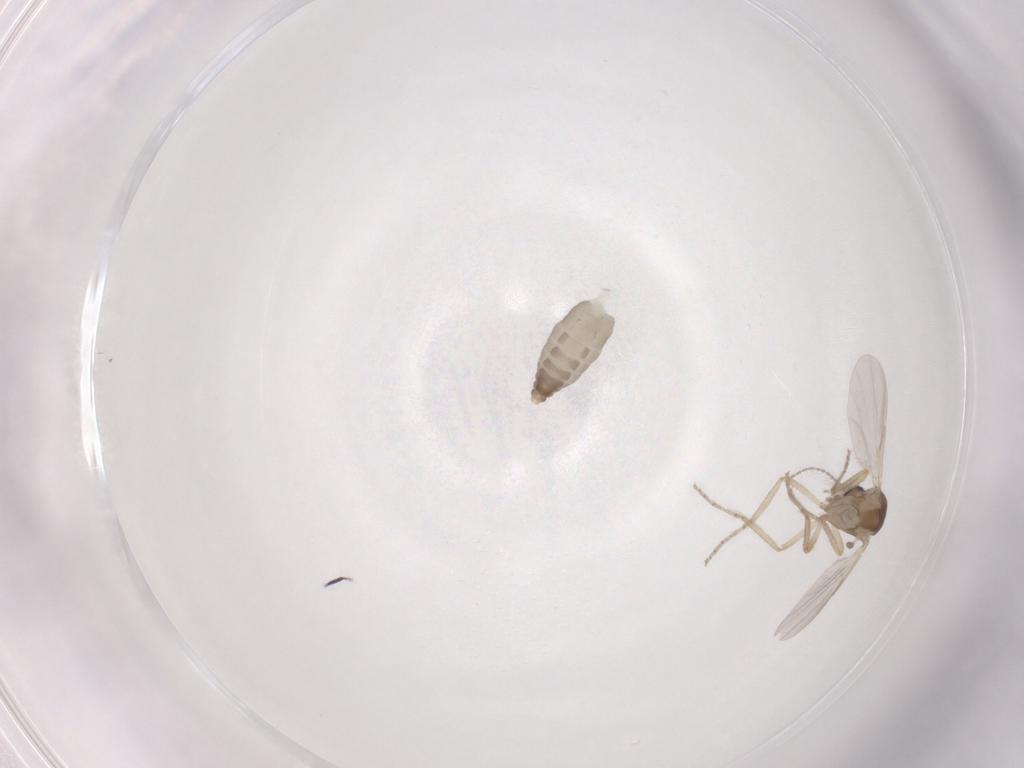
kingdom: Animalia
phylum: Arthropoda
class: Insecta
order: Diptera
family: Ceratopogonidae
